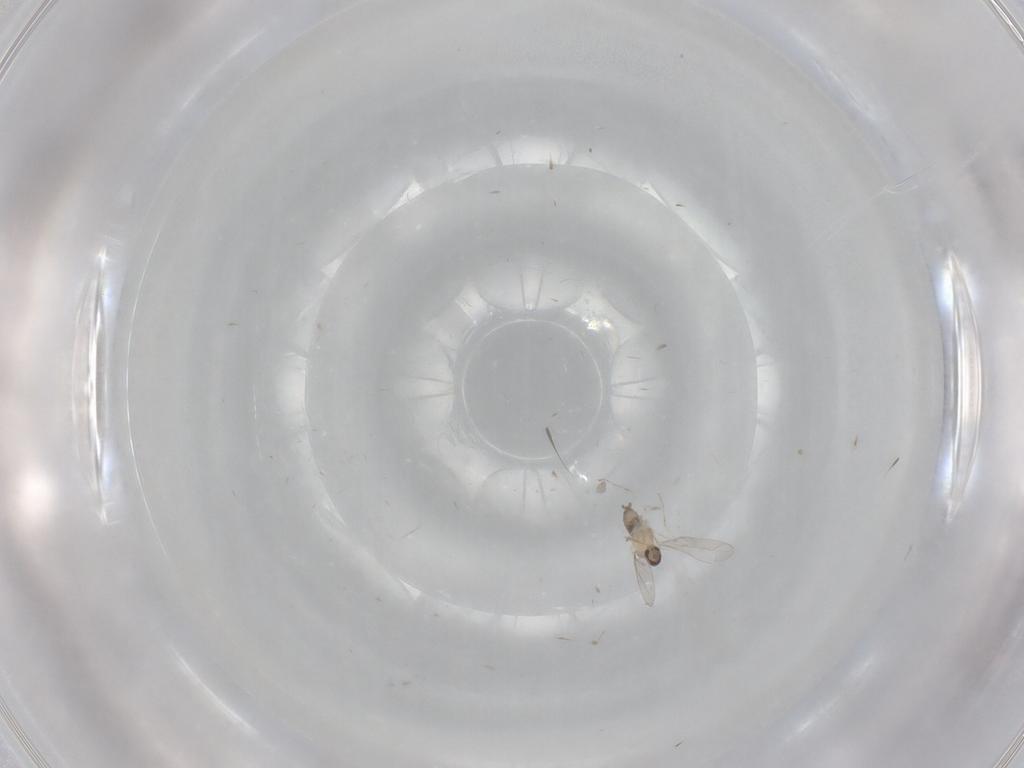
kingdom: Animalia
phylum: Arthropoda
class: Insecta
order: Diptera
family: Cecidomyiidae
